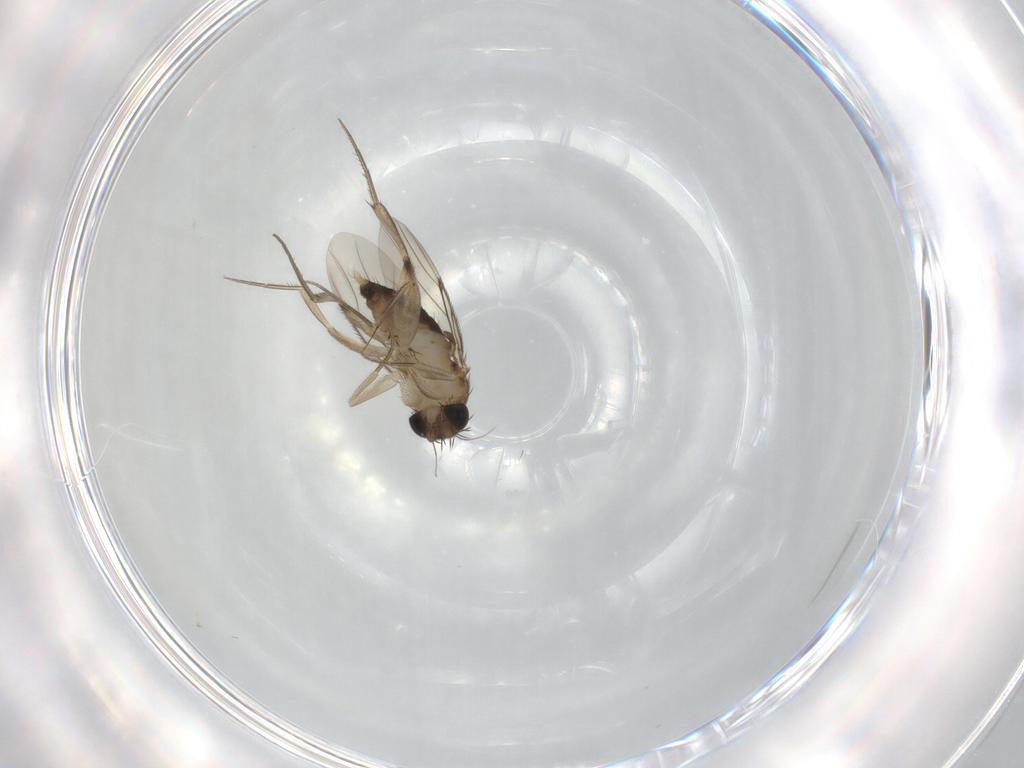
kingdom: Animalia
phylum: Arthropoda
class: Insecta
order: Diptera
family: Phoridae
